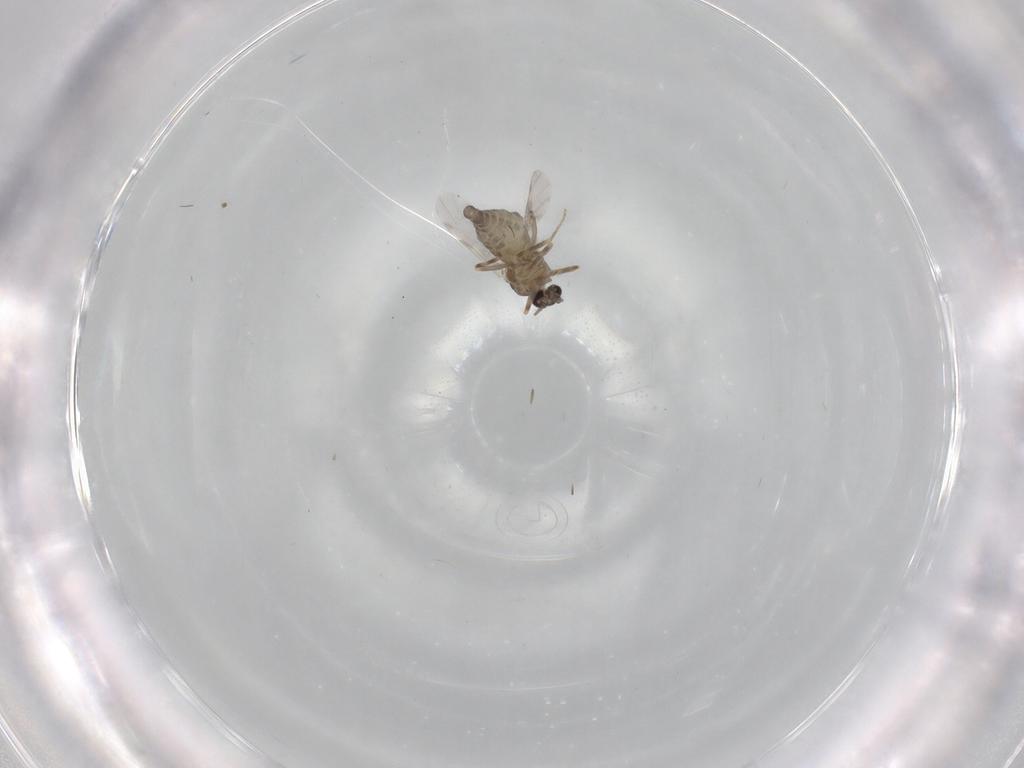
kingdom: Animalia
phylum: Arthropoda
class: Insecta
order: Diptera
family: Ceratopogonidae
